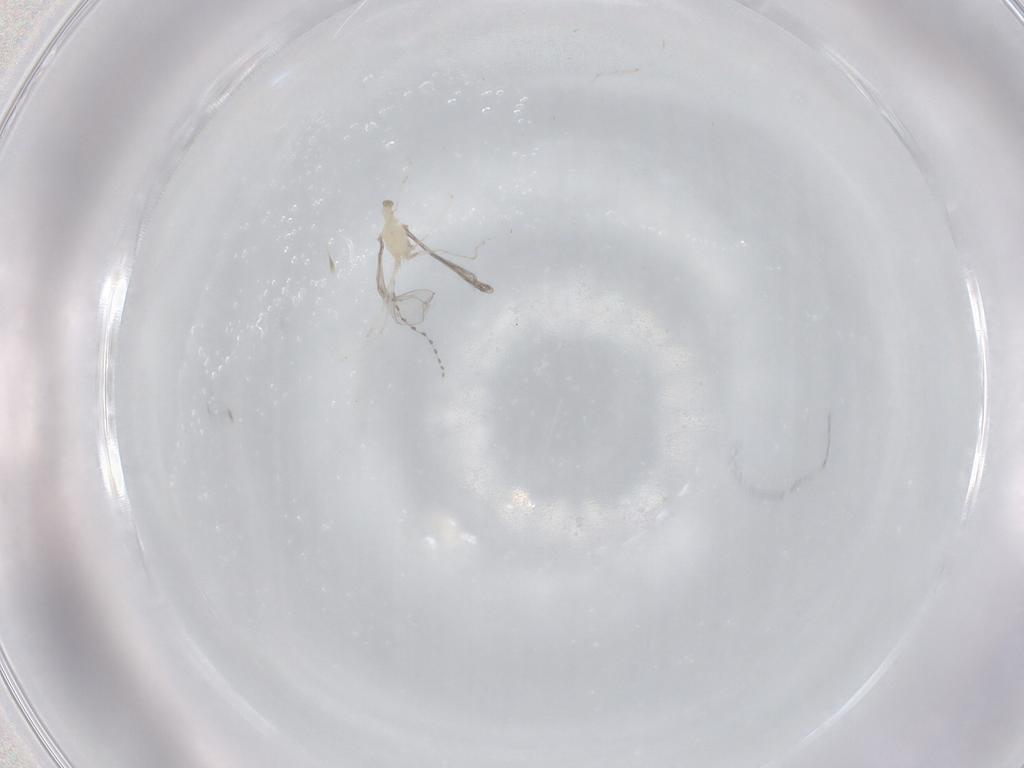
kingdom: Animalia
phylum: Arthropoda
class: Insecta
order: Diptera
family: Cecidomyiidae
